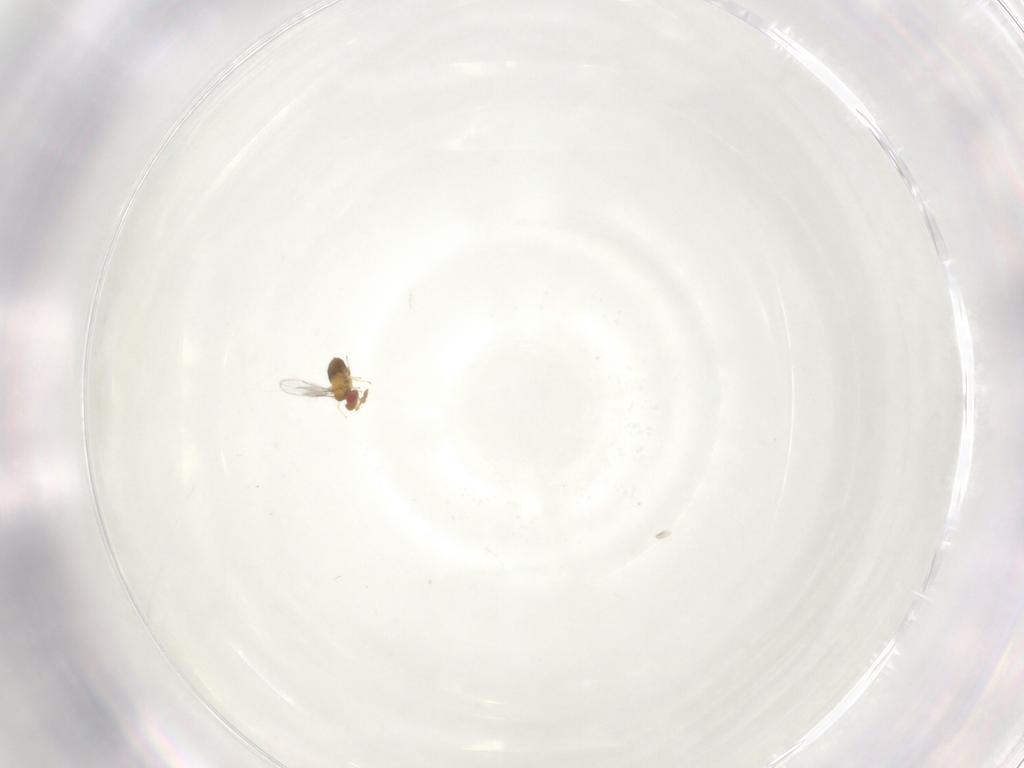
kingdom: Animalia
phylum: Arthropoda
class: Insecta
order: Hymenoptera
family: Trichogrammatidae
